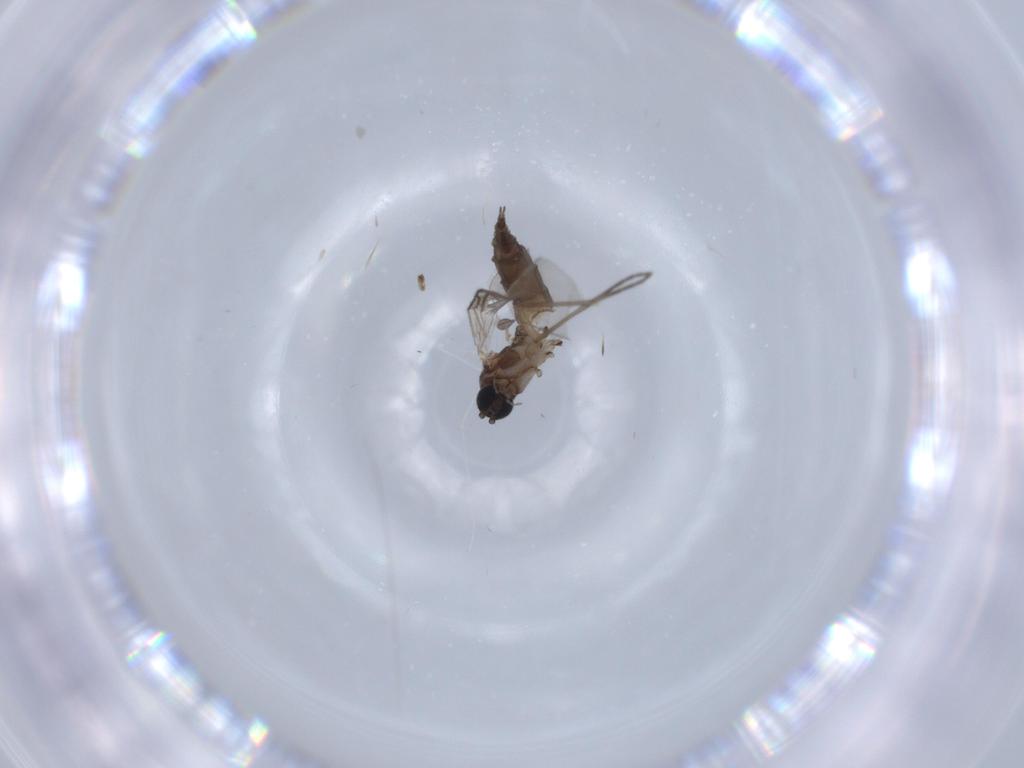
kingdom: Animalia
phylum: Arthropoda
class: Insecta
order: Diptera
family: Sciaridae
